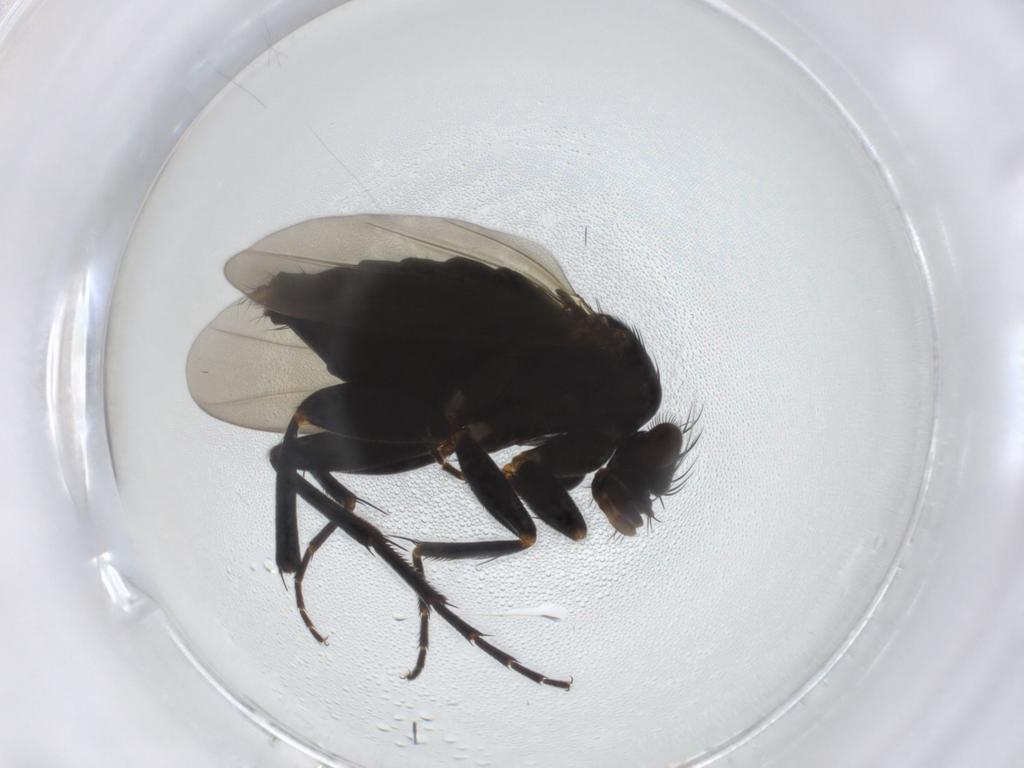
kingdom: Animalia
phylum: Arthropoda
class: Insecta
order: Diptera
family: Phoridae
